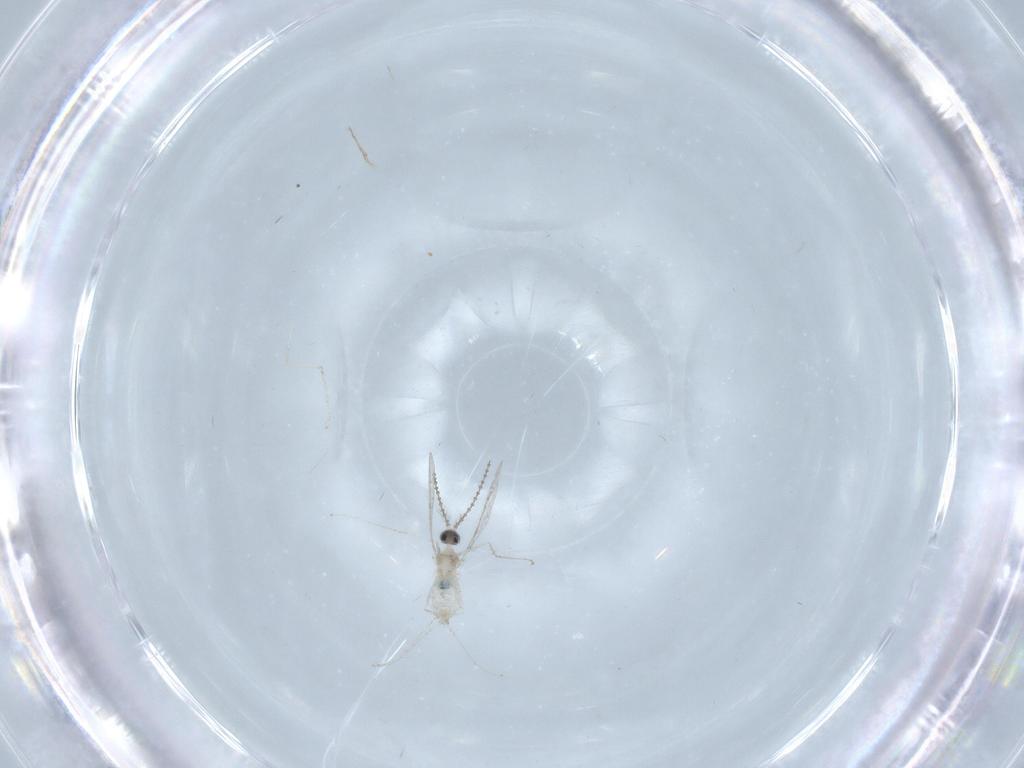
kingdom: Animalia
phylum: Arthropoda
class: Insecta
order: Diptera
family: Cecidomyiidae
